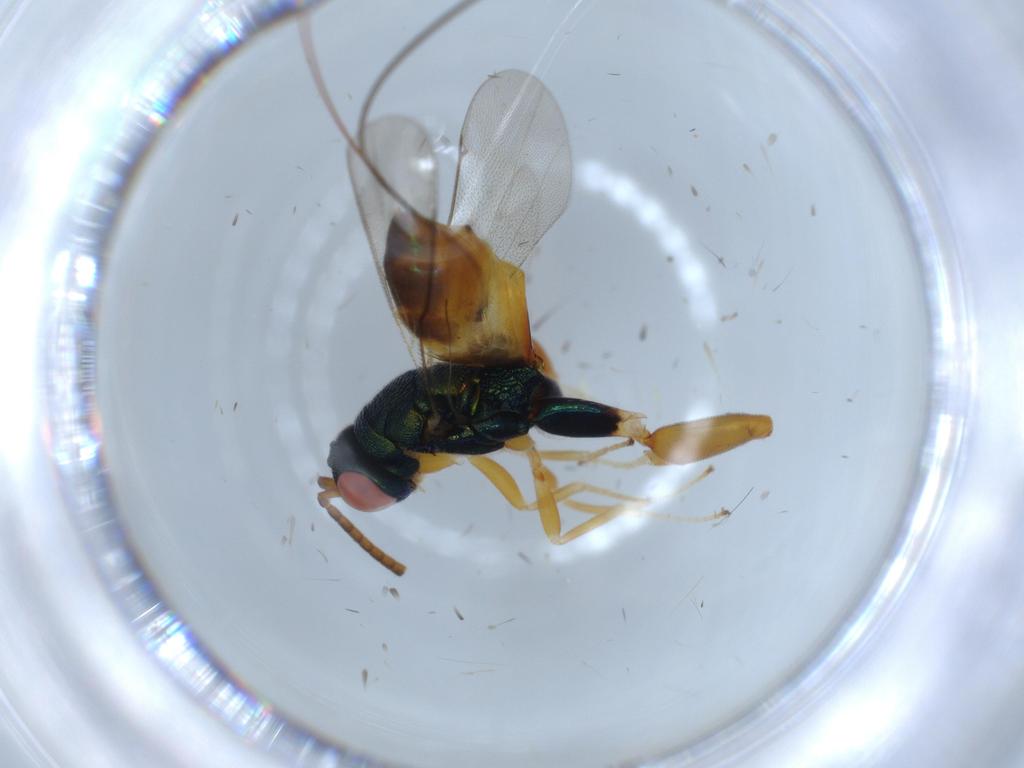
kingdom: Animalia
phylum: Arthropoda
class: Insecta
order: Hymenoptera
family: Torymidae
